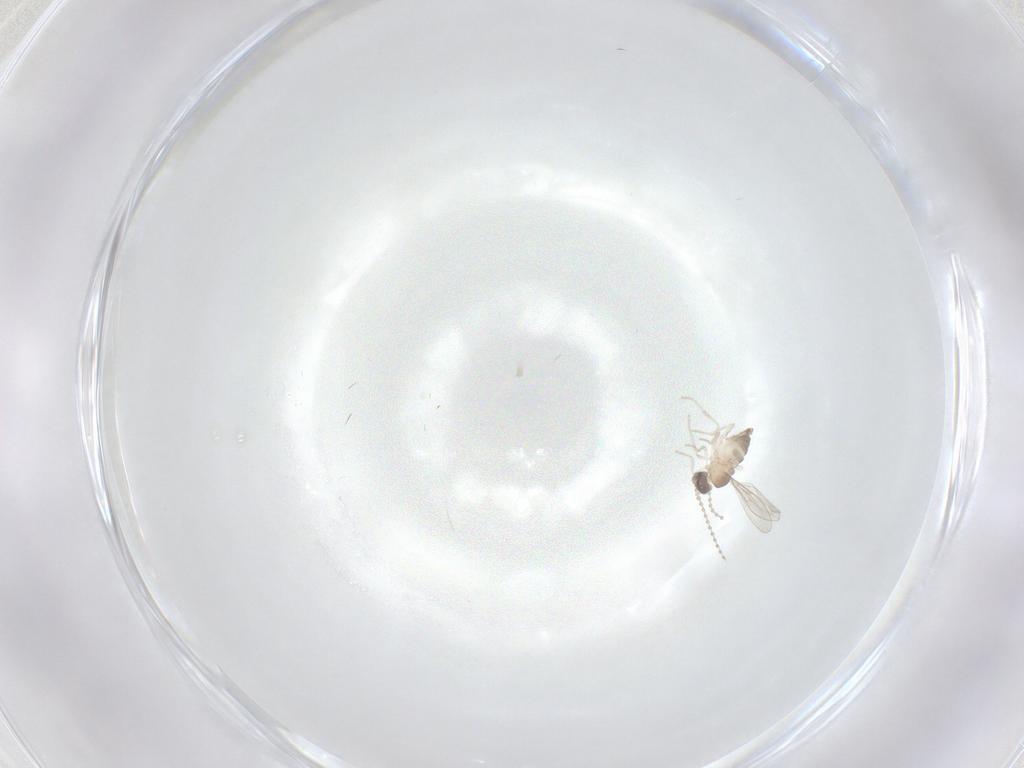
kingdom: Animalia
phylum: Arthropoda
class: Insecta
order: Diptera
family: Cecidomyiidae
